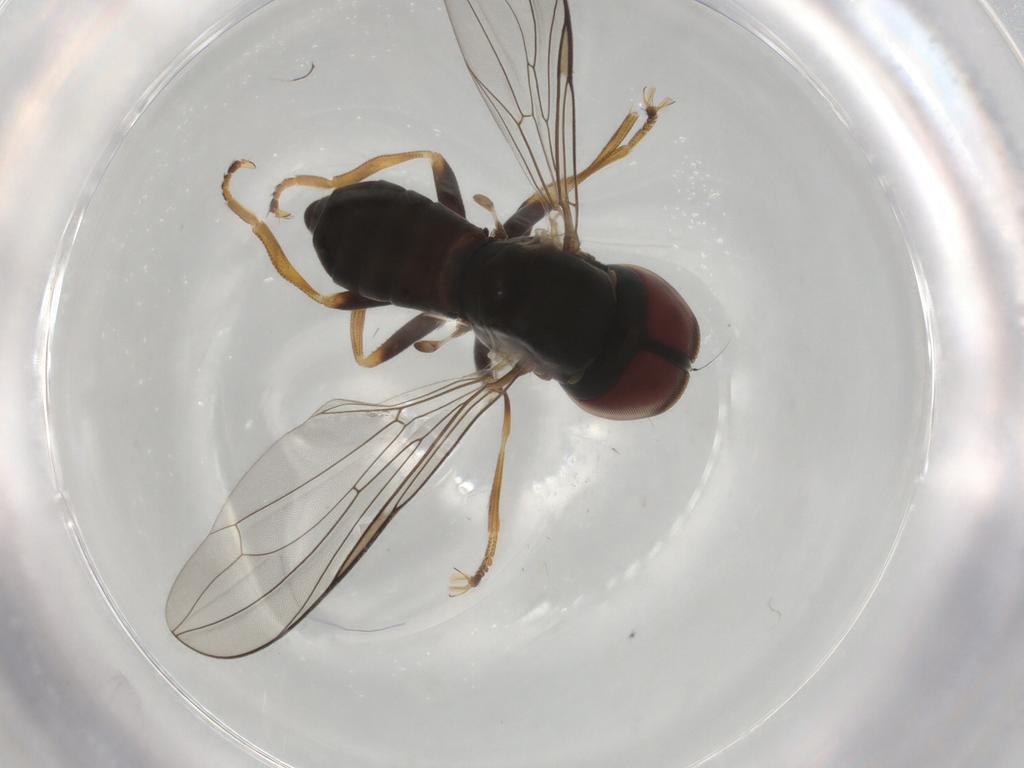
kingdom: Animalia
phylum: Arthropoda
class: Insecta
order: Diptera
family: Pipunculidae
